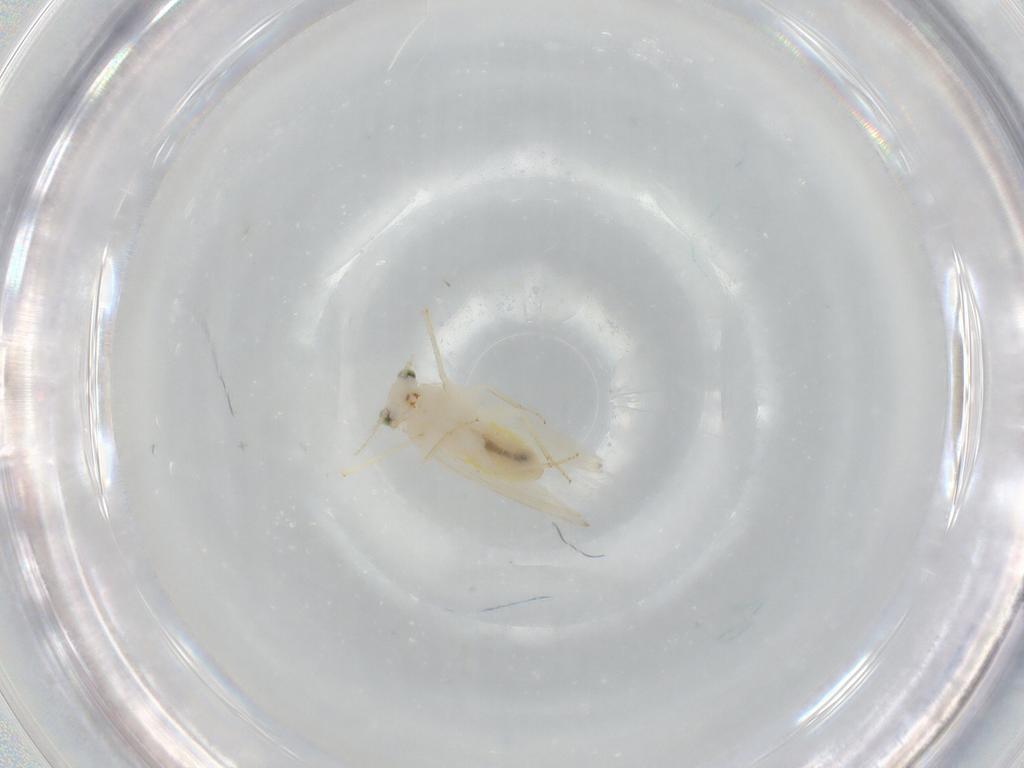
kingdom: Animalia
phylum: Arthropoda
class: Insecta
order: Psocodea
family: Lepidopsocidae
